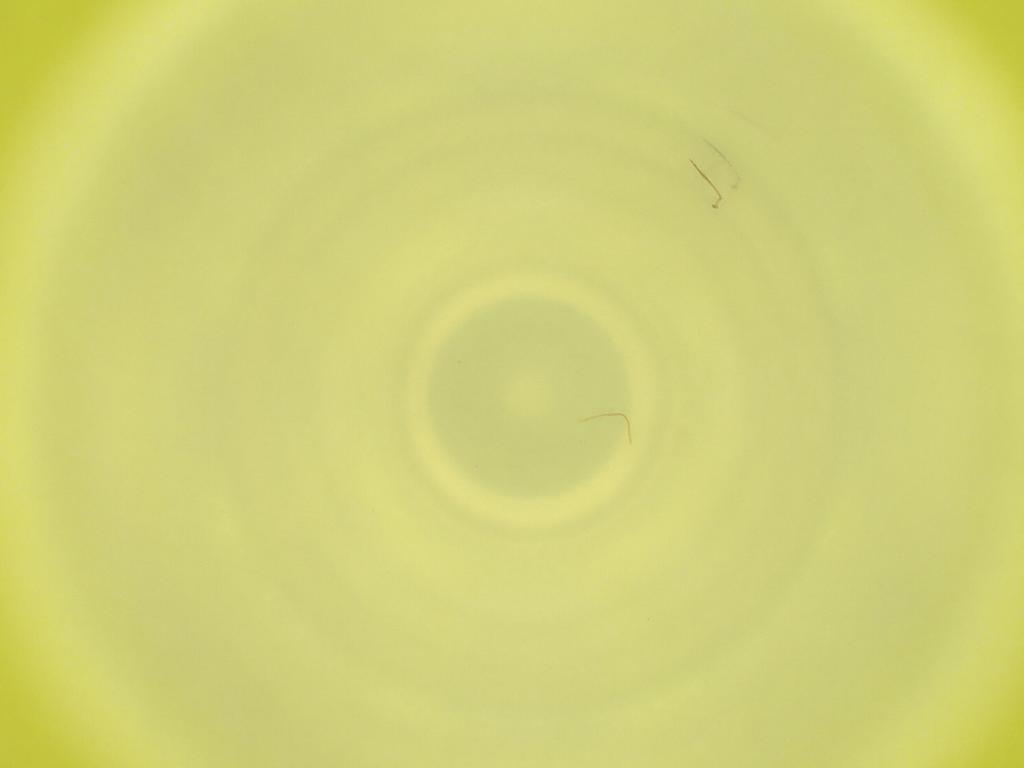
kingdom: Animalia
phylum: Arthropoda
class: Insecta
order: Diptera
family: Cecidomyiidae
